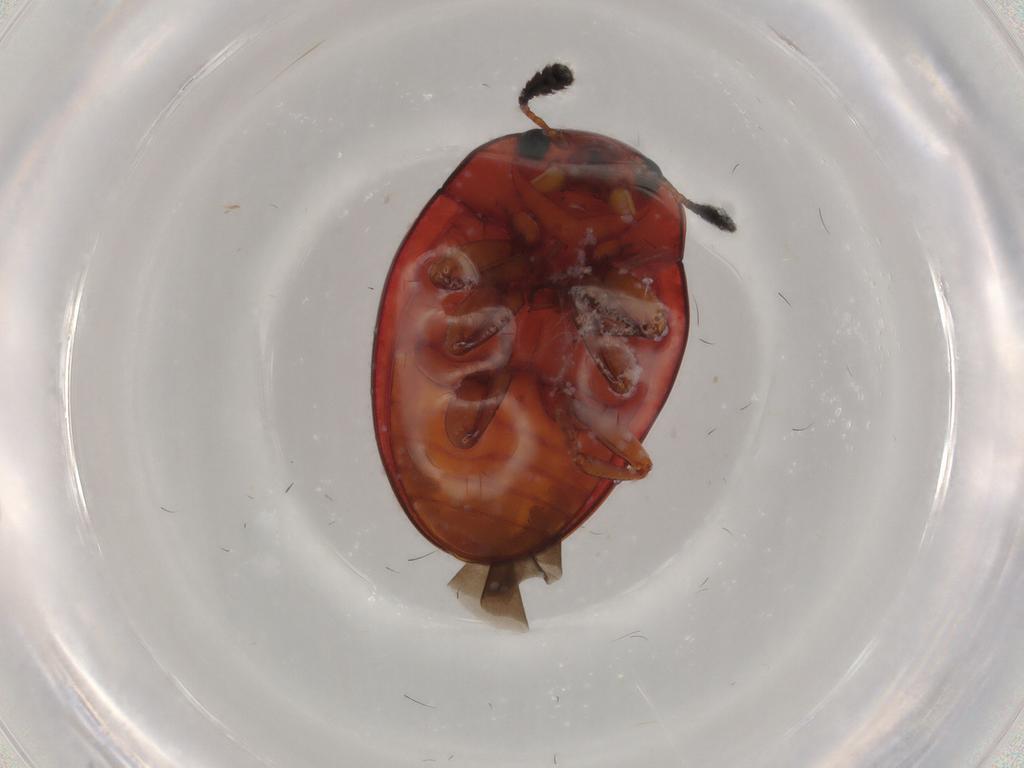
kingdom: Animalia
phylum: Arthropoda
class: Insecta
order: Coleoptera
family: Erotylidae
